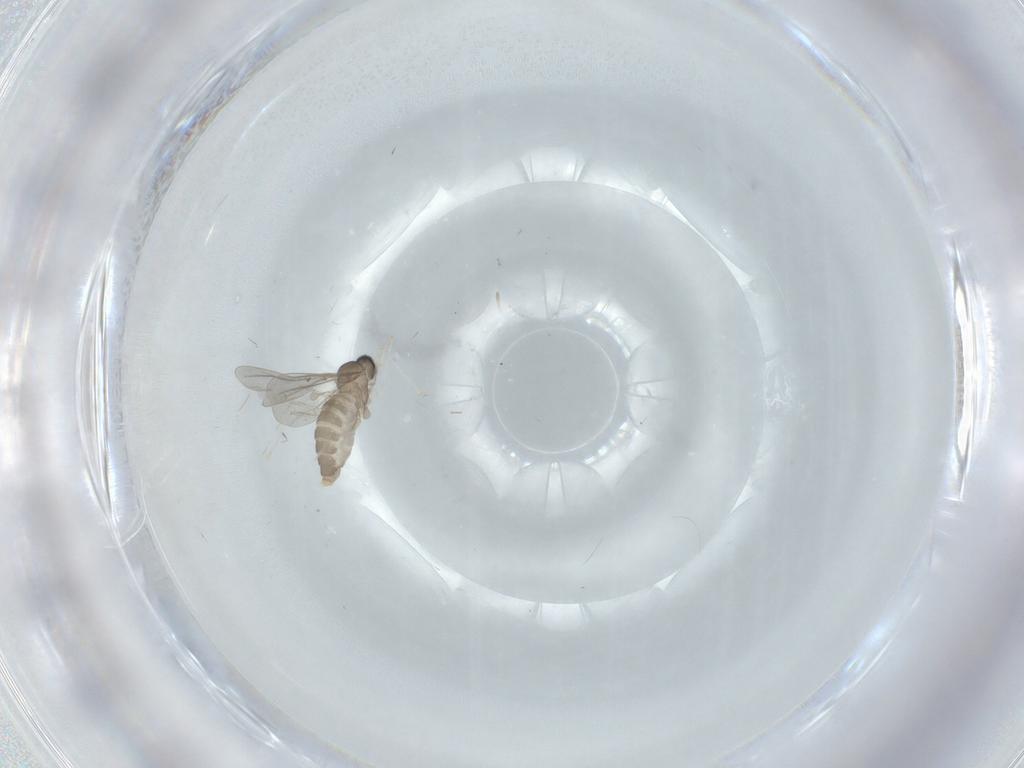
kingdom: Animalia
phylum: Arthropoda
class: Insecta
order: Diptera
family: Cecidomyiidae
